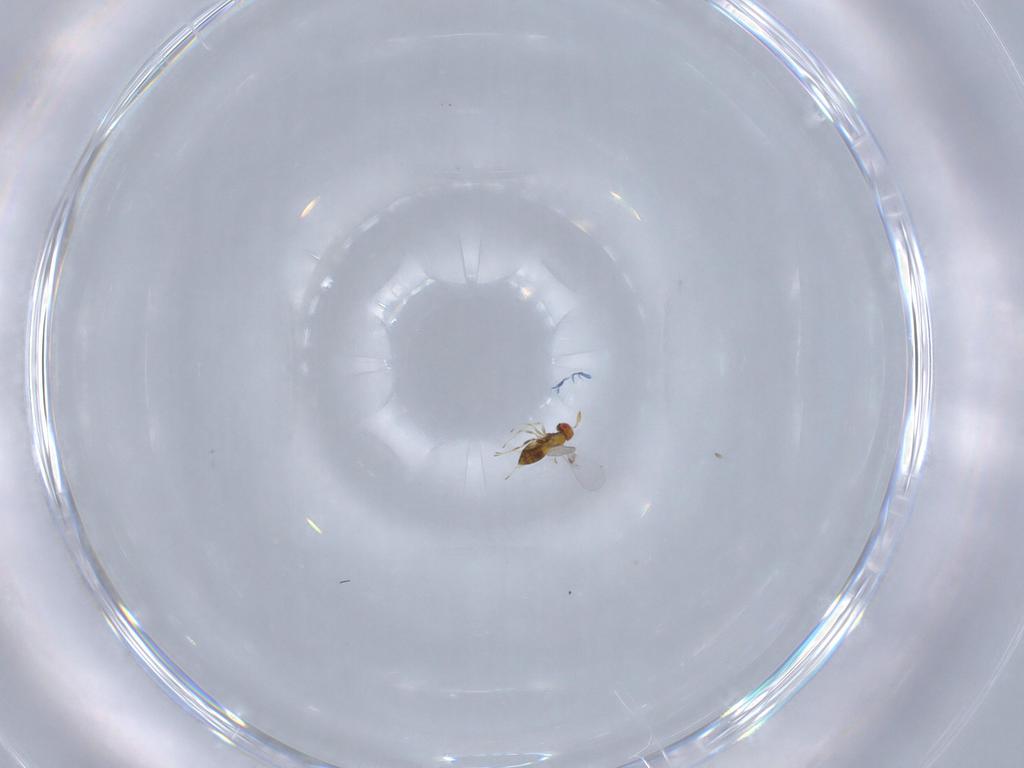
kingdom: Animalia
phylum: Arthropoda
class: Insecta
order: Hymenoptera
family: Trichogrammatidae
